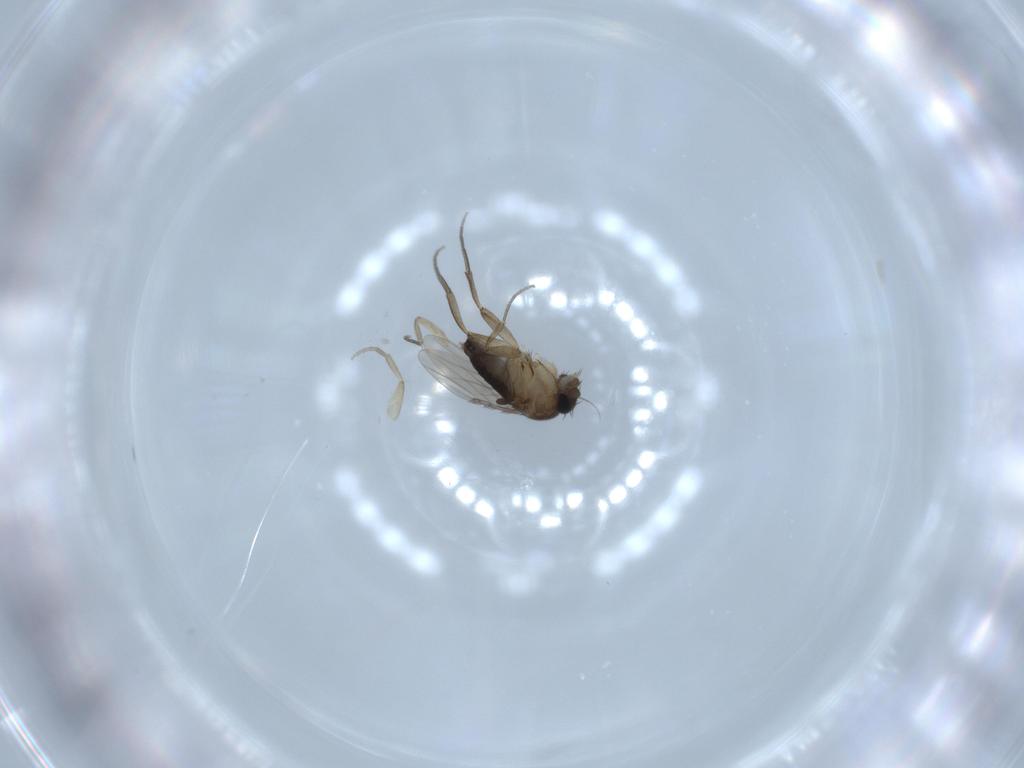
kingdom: Animalia
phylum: Arthropoda
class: Insecta
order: Diptera
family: Phoridae
